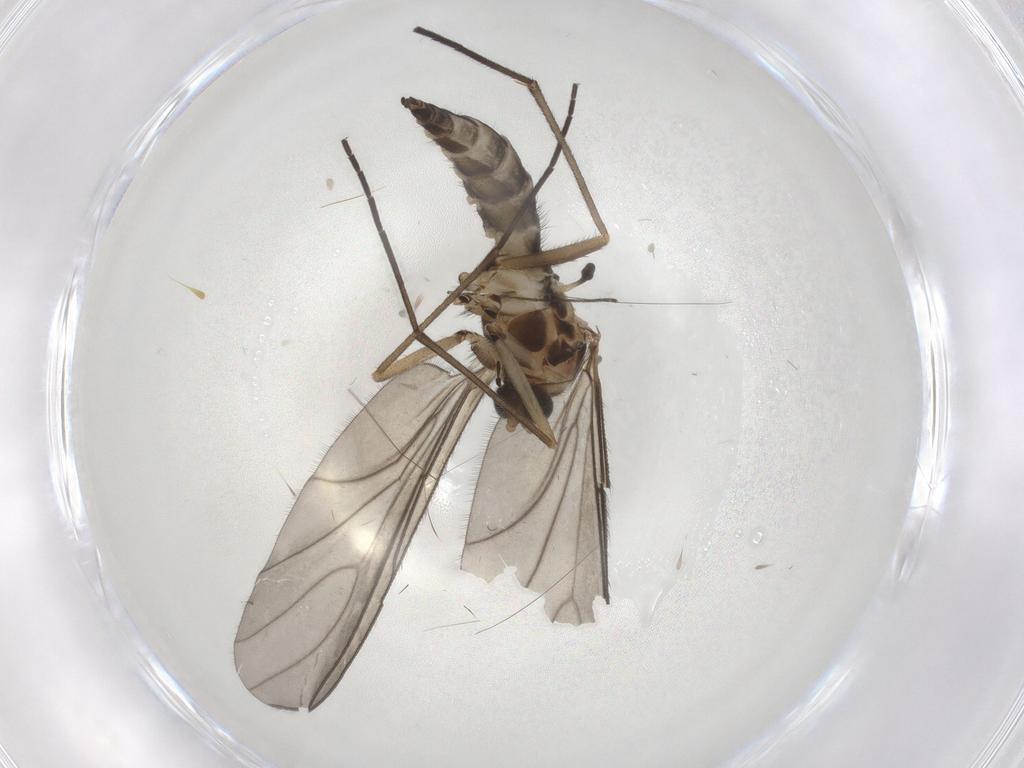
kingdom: Animalia
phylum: Arthropoda
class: Insecta
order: Diptera
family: Sciaridae
